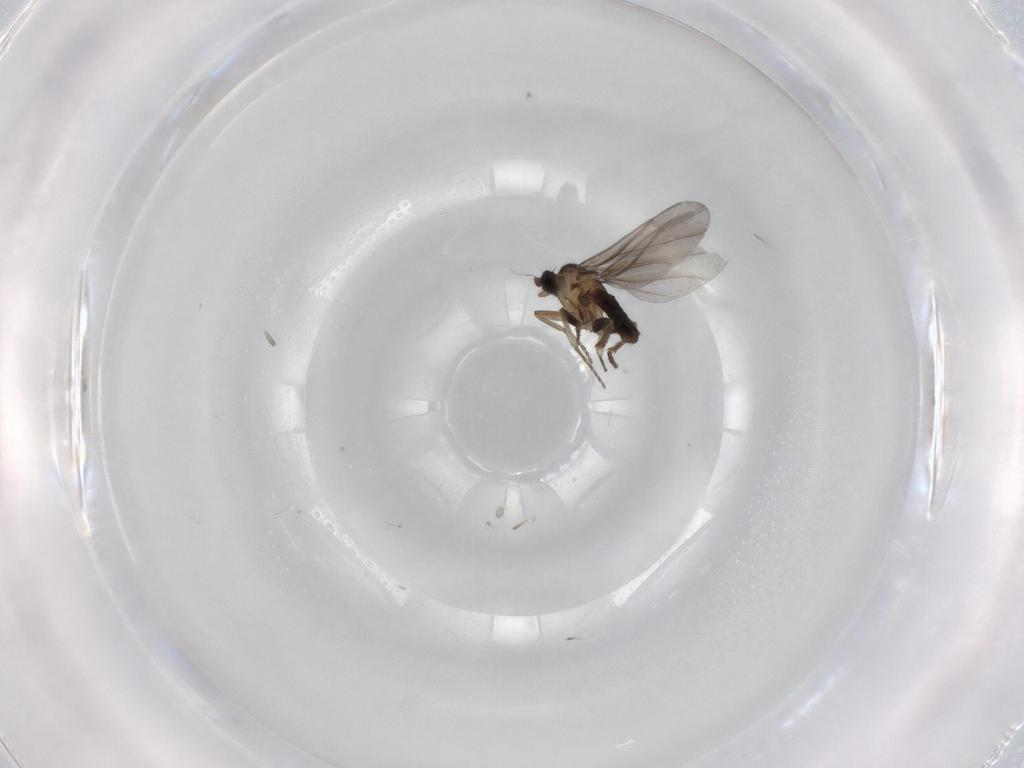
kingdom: Animalia
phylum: Arthropoda
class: Insecta
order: Diptera
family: Phoridae
